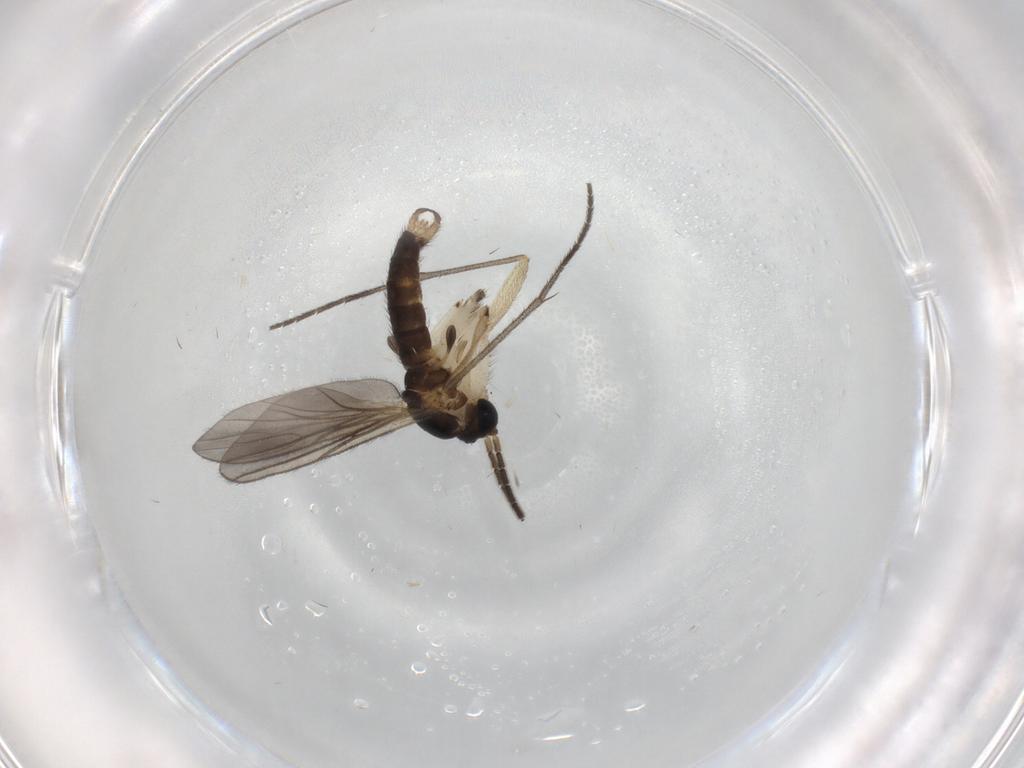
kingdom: Animalia
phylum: Arthropoda
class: Insecta
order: Diptera
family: Sciaridae
